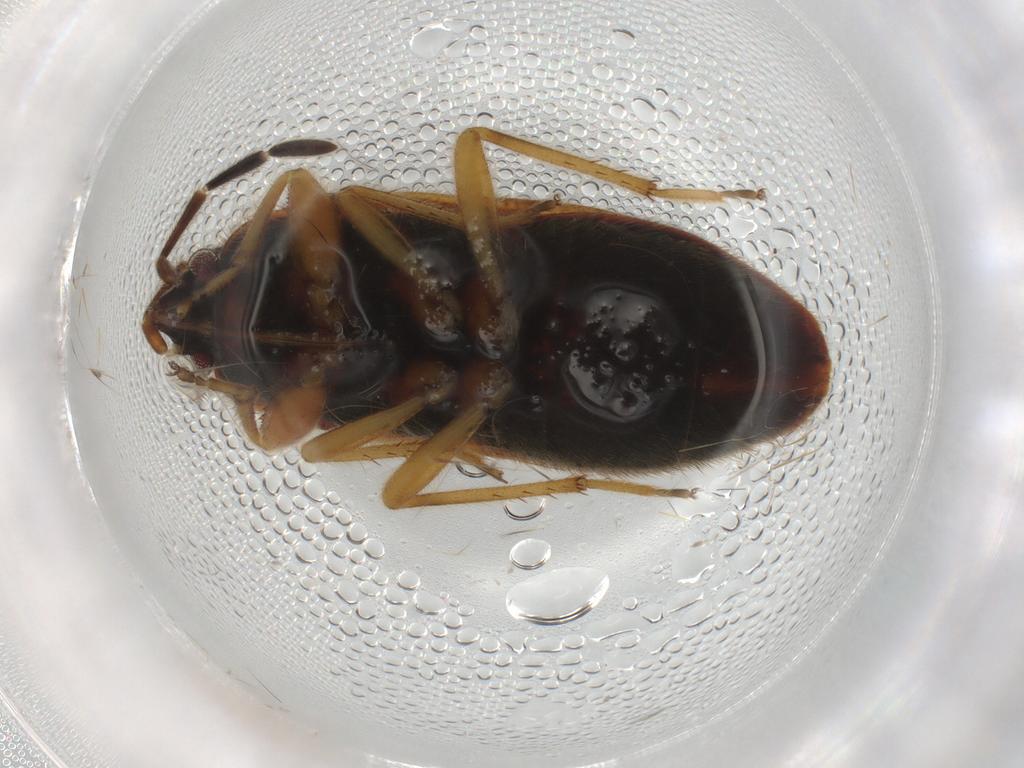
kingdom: Animalia
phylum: Arthropoda
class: Insecta
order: Hemiptera
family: Rhyparochromidae
